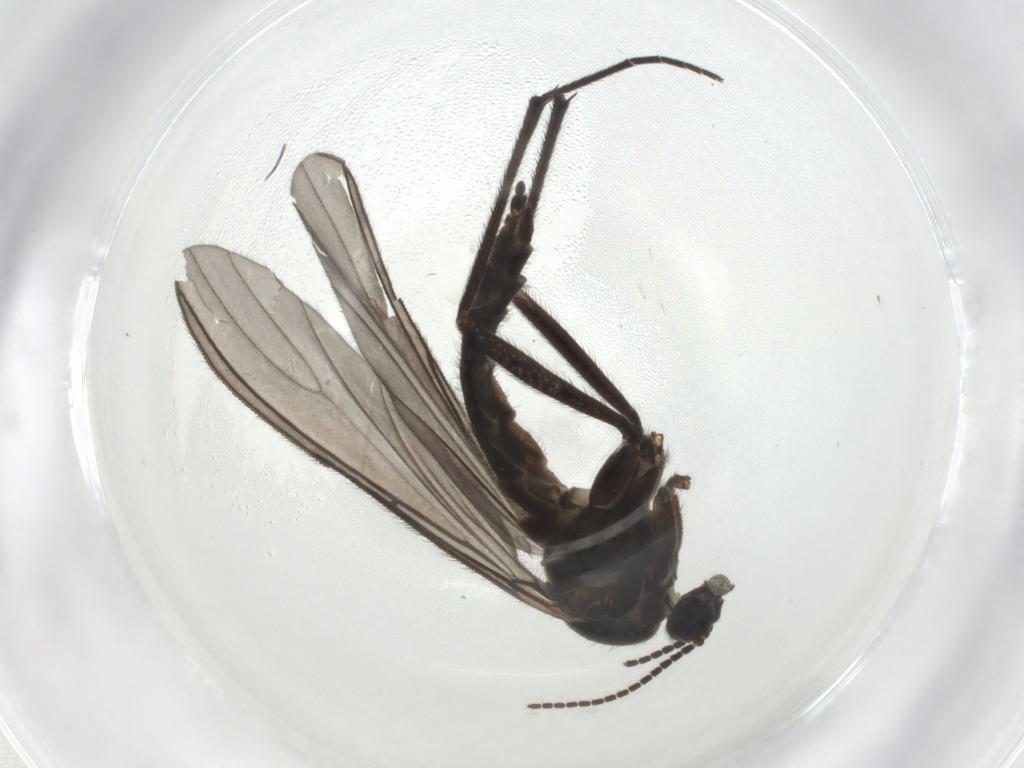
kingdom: Animalia
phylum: Arthropoda
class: Insecta
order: Diptera
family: Sciaridae
